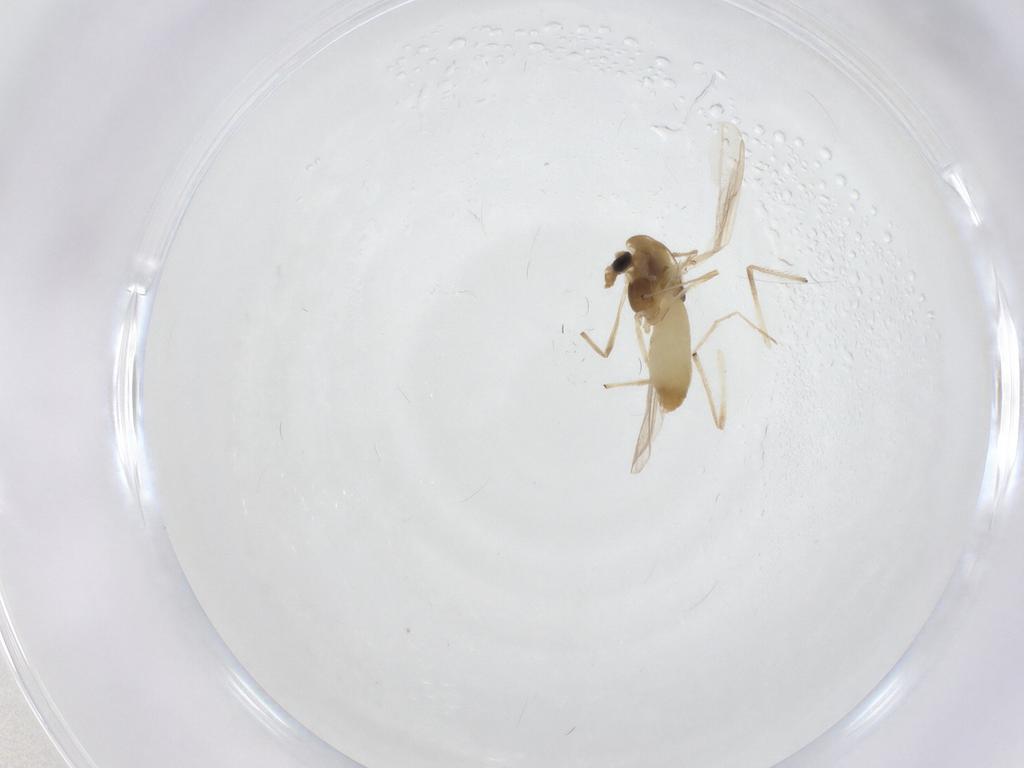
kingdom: Animalia
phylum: Arthropoda
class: Insecta
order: Diptera
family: Chironomidae
